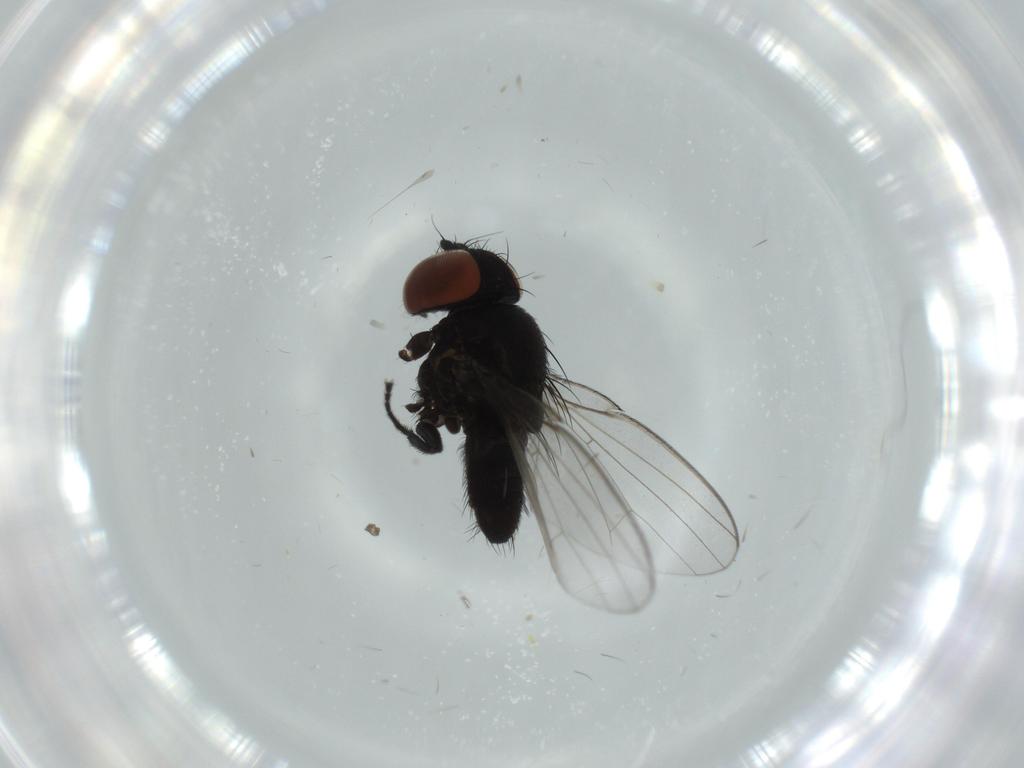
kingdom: Animalia
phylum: Arthropoda
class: Insecta
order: Diptera
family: Milichiidae
